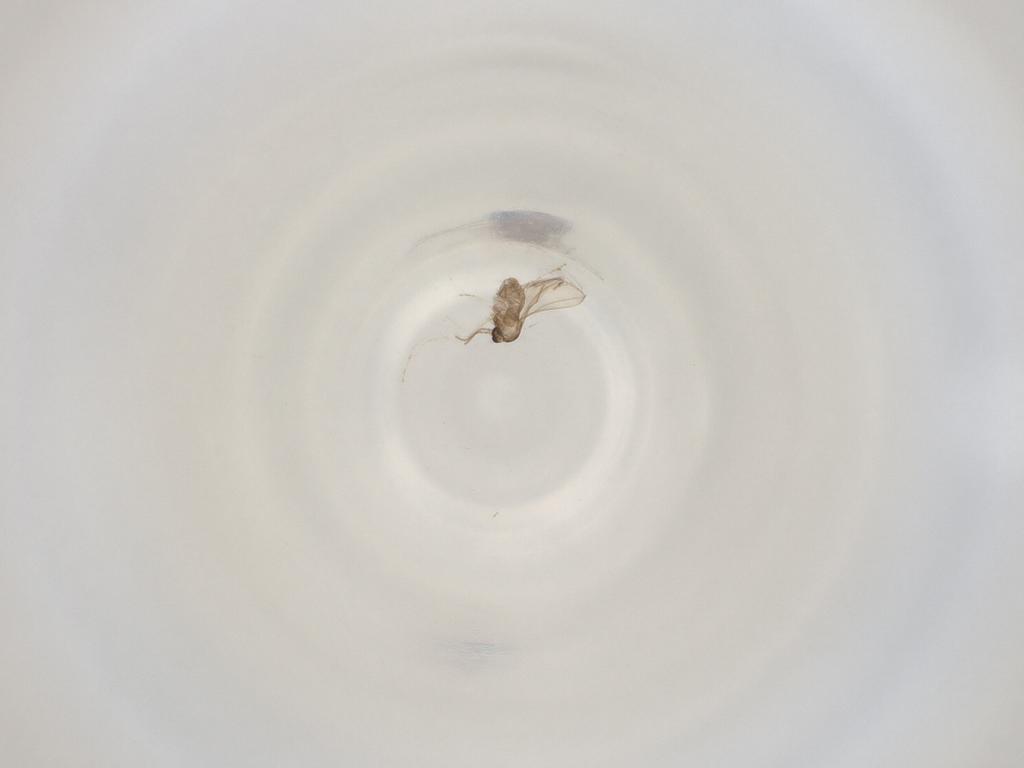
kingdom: Animalia
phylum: Arthropoda
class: Insecta
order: Diptera
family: Cecidomyiidae
